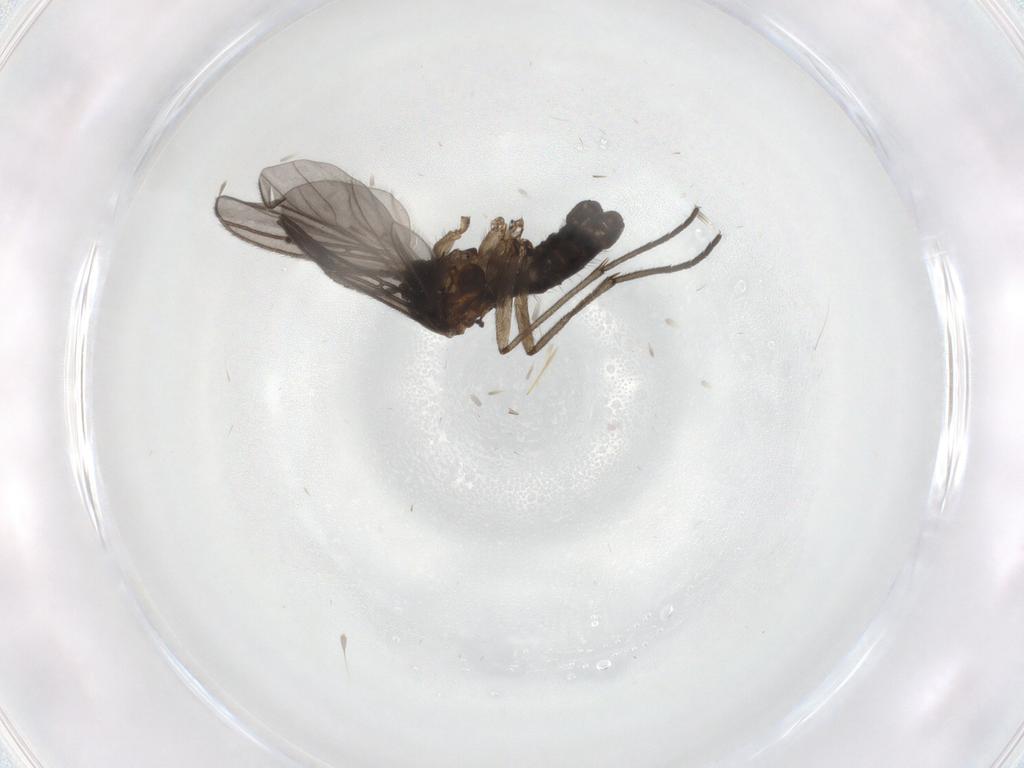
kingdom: Animalia
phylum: Arthropoda
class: Insecta
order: Diptera
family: Sciaridae
